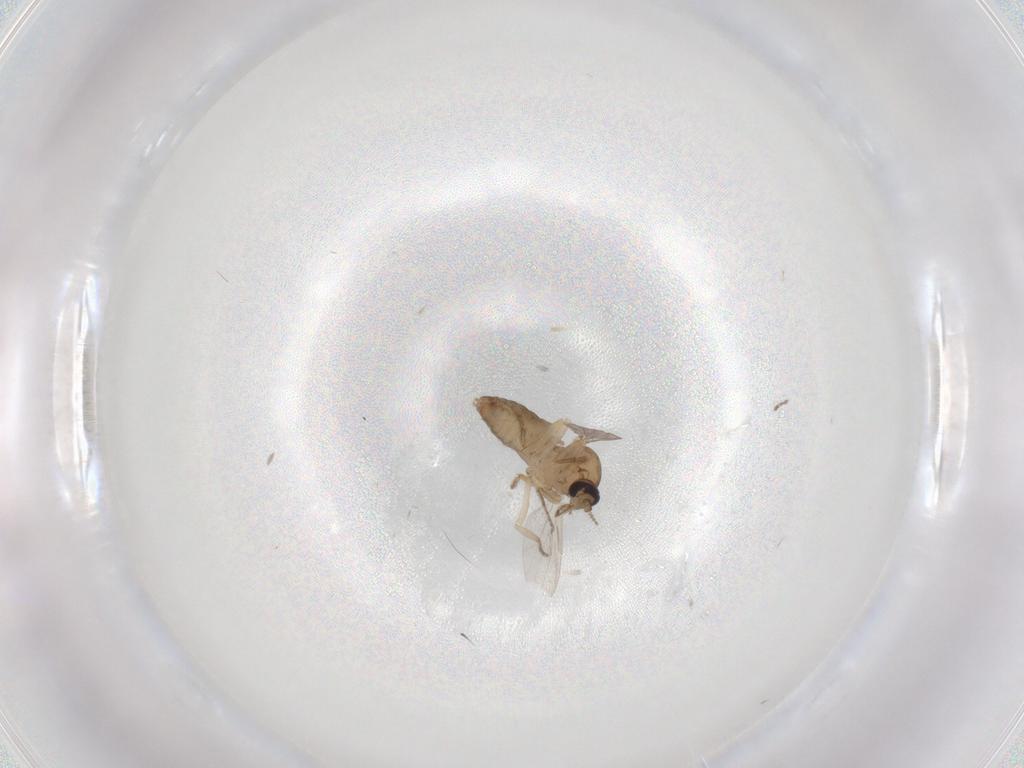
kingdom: Animalia
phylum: Arthropoda
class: Insecta
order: Diptera
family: Ceratopogonidae
